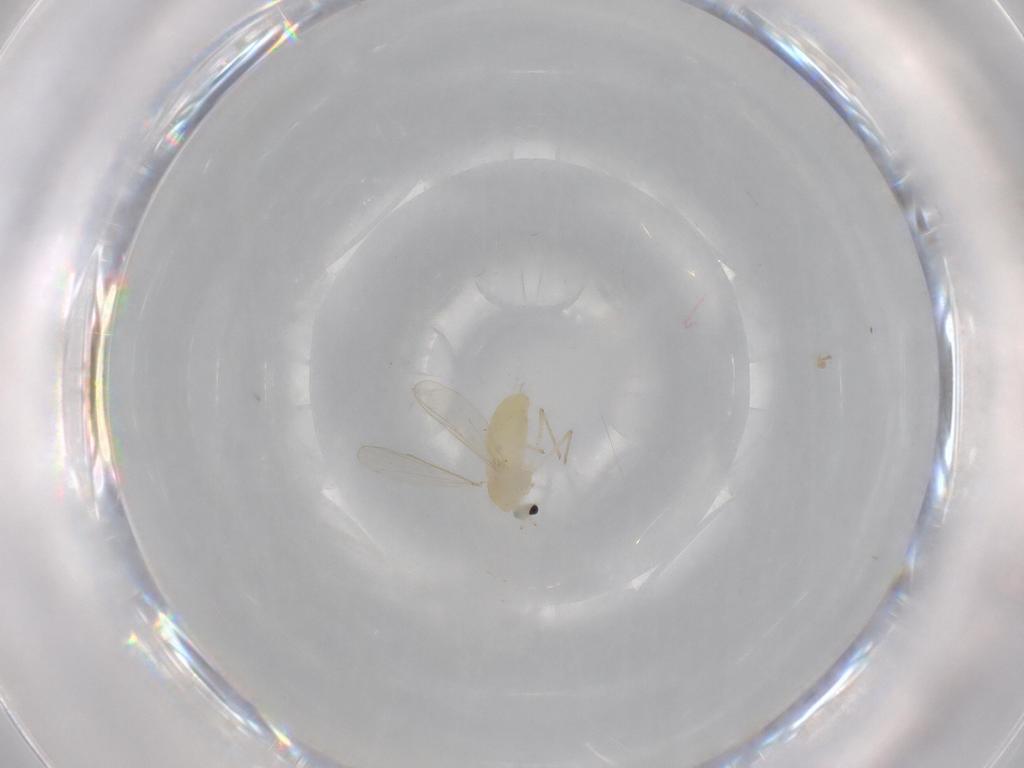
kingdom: Animalia
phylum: Arthropoda
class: Insecta
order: Diptera
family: Chironomidae
